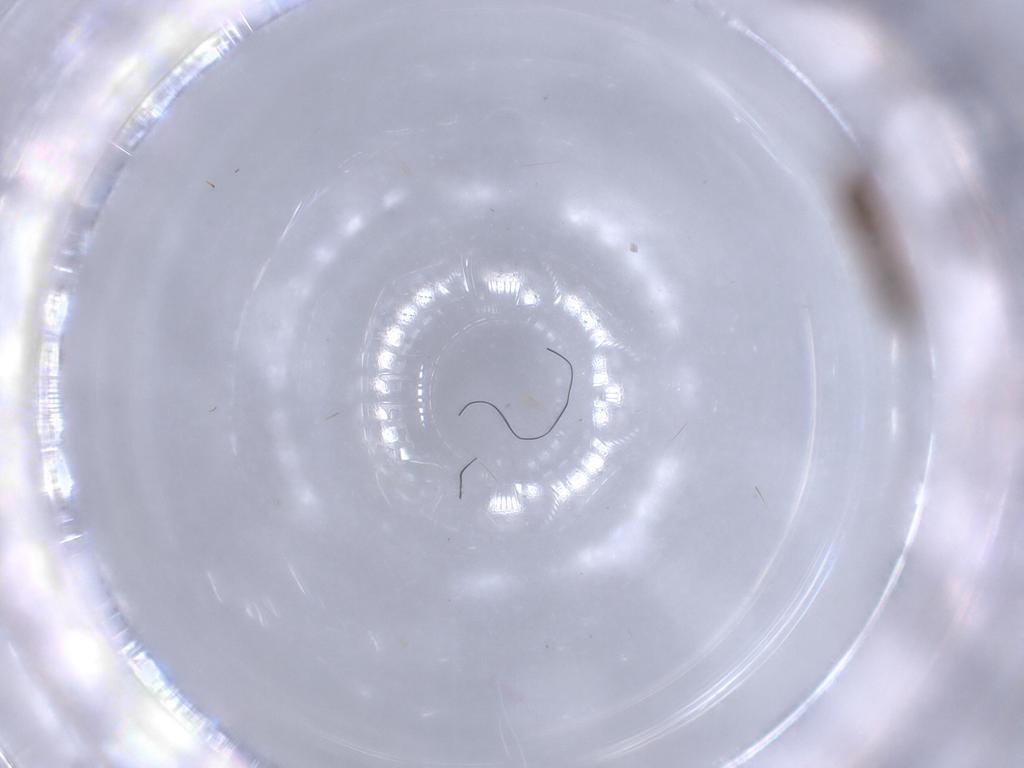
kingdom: Animalia
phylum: Arthropoda
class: Insecta
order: Hymenoptera
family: Scelionidae
